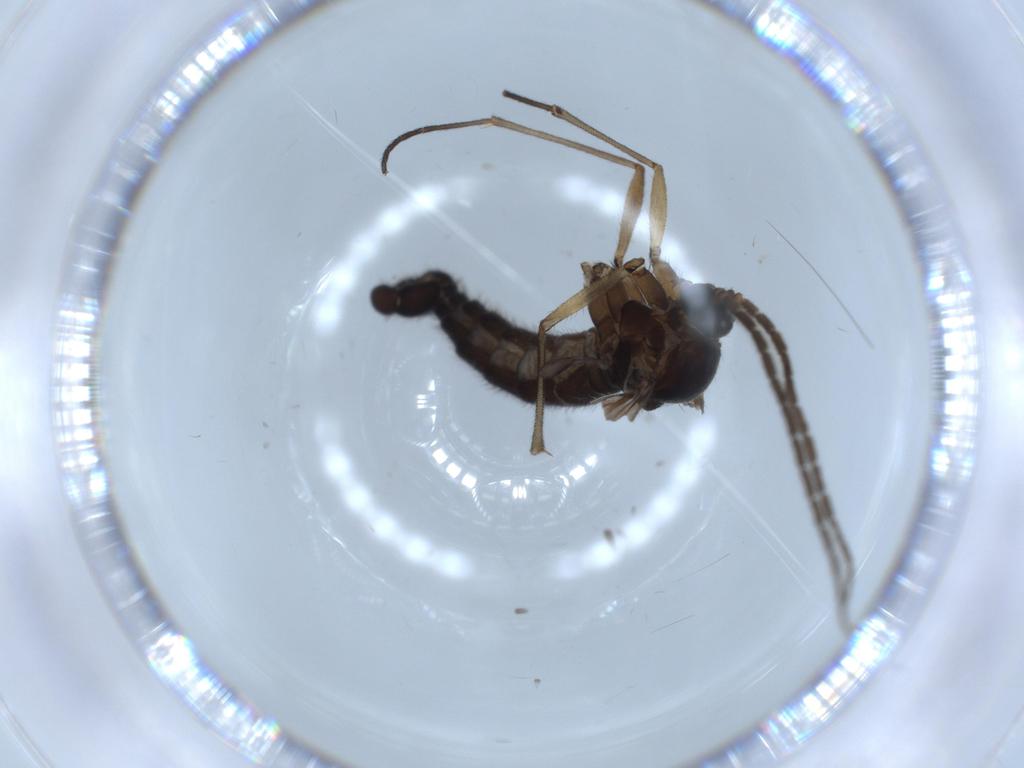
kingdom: Animalia
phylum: Arthropoda
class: Insecta
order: Diptera
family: Sciaridae
